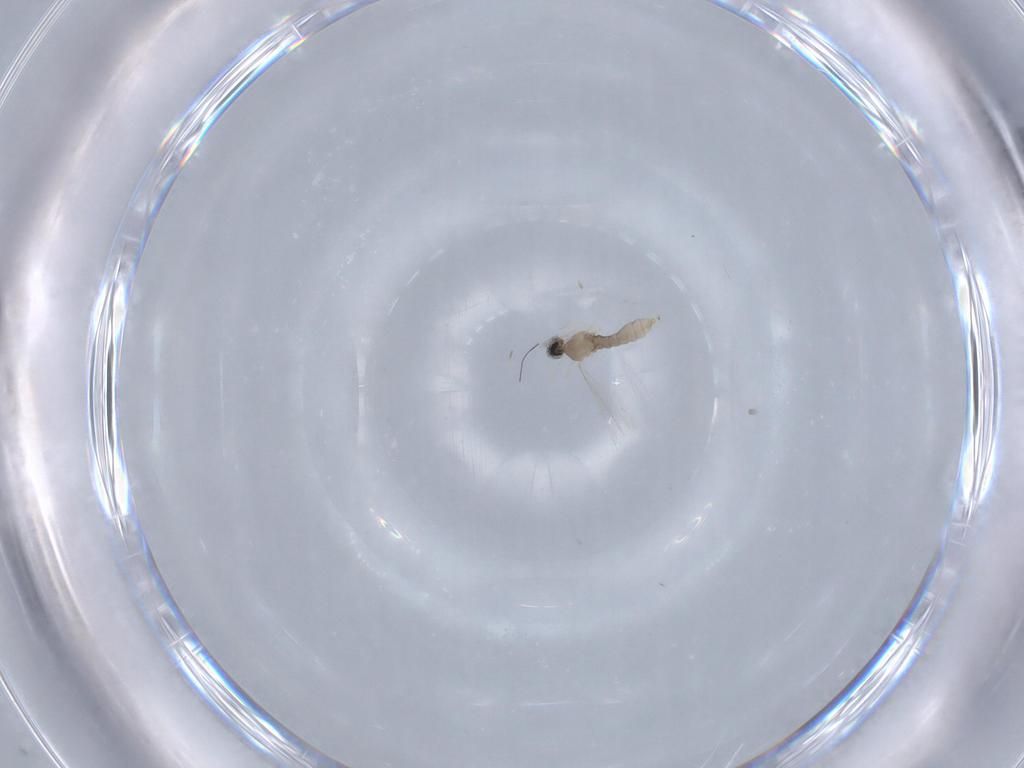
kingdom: Animalia
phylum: Arthropoda
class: Insecta
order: Diptera
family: Cecidomyiidae
